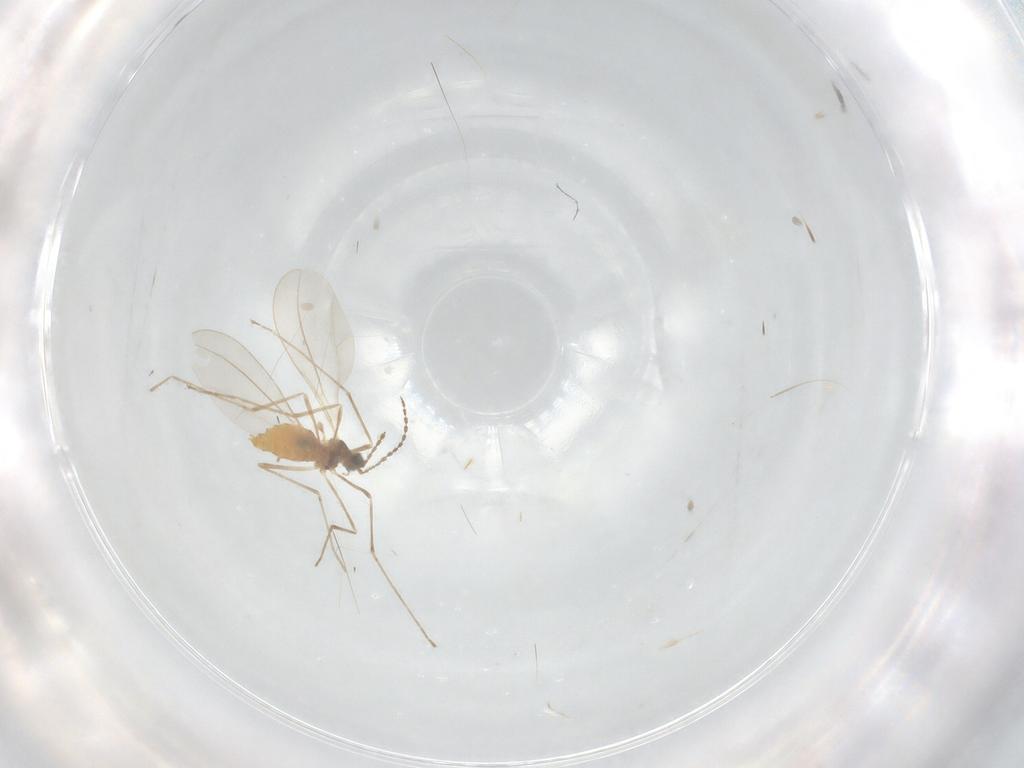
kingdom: Animalia
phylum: Arthropoda
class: Insecta
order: Diptera
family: Cecidomyiidae
